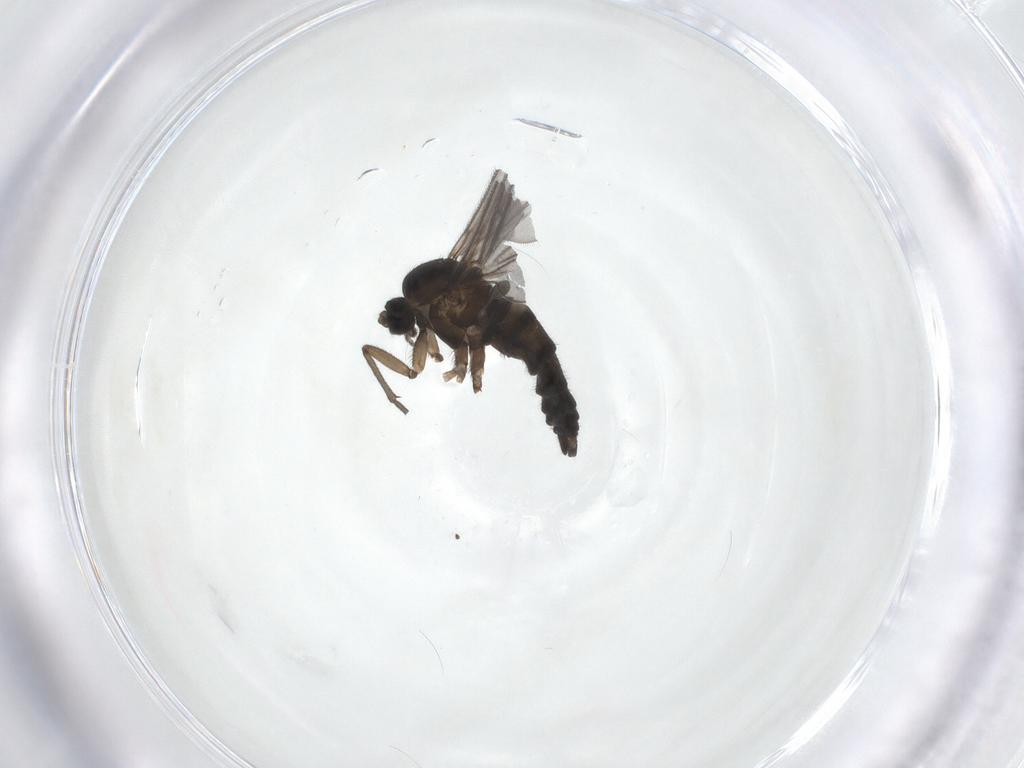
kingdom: Animalia
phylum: Arthropoda
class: Insecta
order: Diptera
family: Sciaridae
